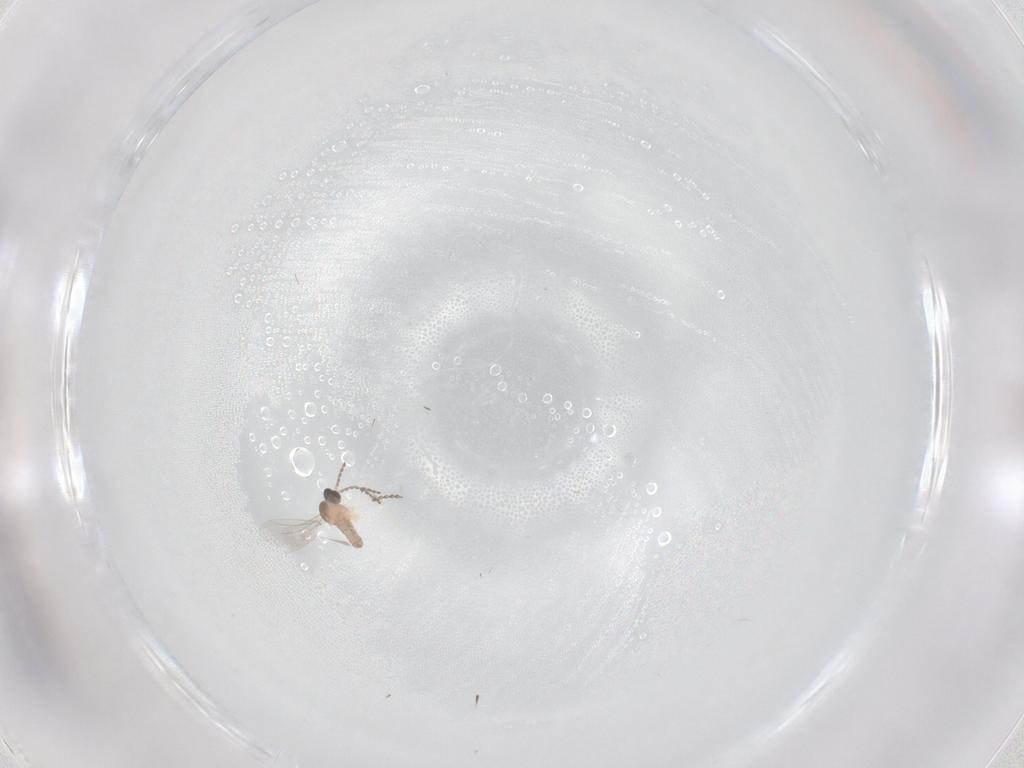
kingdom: Animalia
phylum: Arthropoda
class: Insecta
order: Diptera
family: Cecidomyiidae
